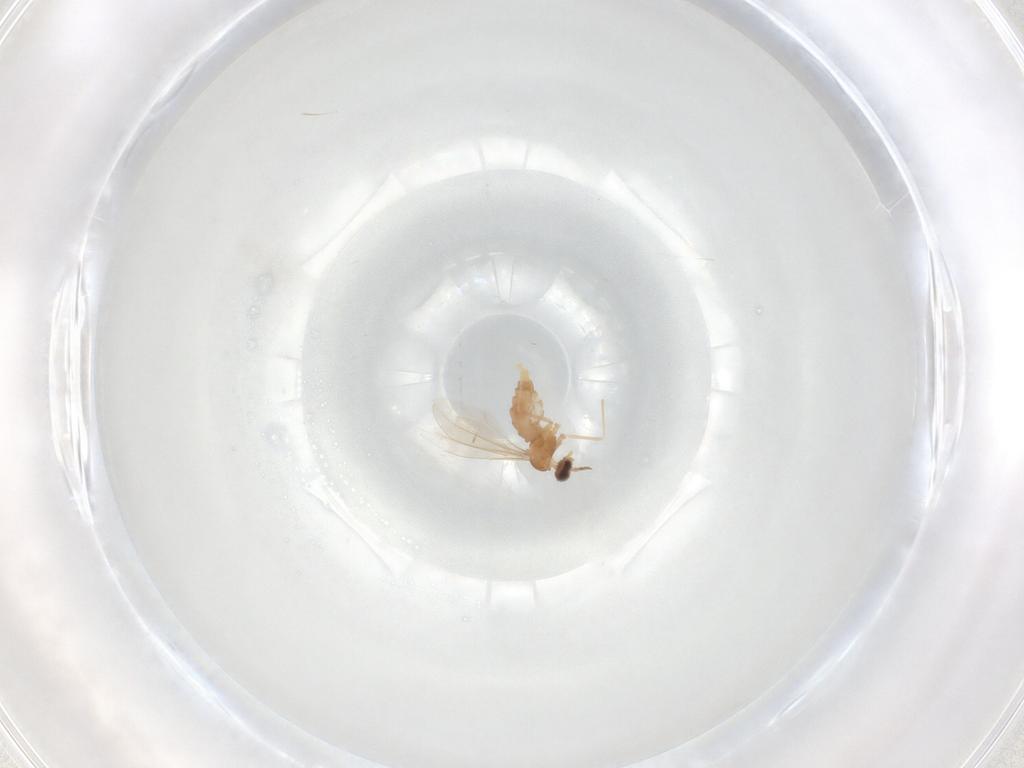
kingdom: Animalia
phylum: Arthropoda
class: Insecta
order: Diptera
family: Cecidomyiidae
